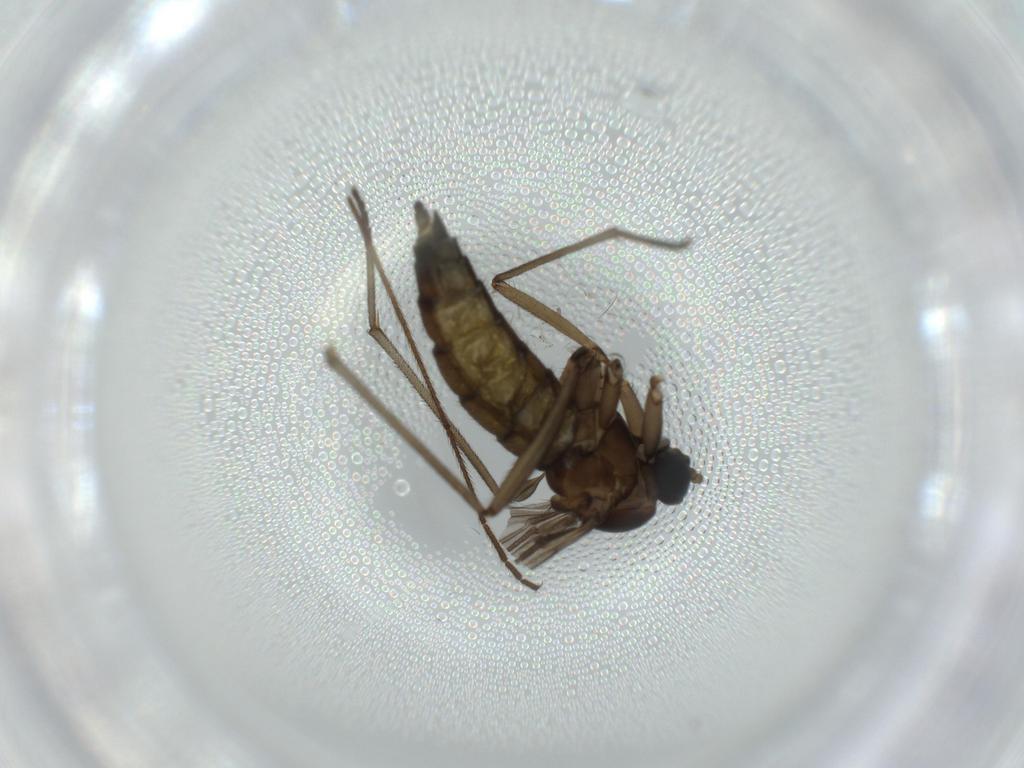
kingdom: Animalia
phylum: Arthropoda
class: Insecta
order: Diptera
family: Sciaridae
